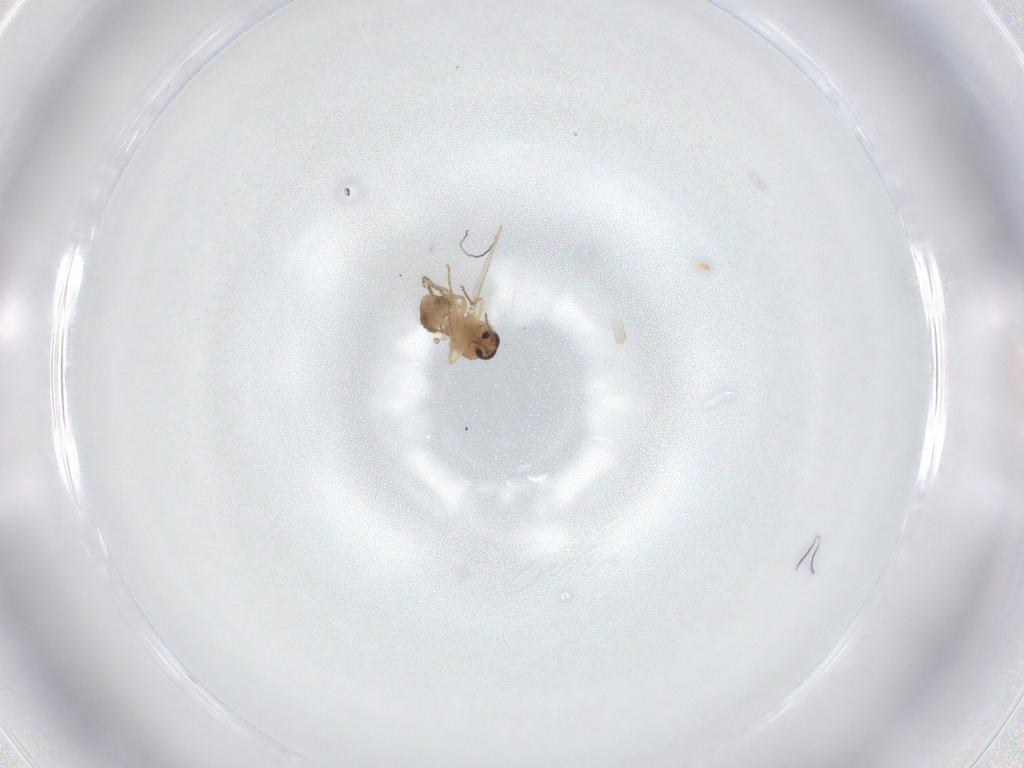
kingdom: Animalia
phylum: Arthropoda
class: Insecta
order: Diptera
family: Ceratopogonidae
